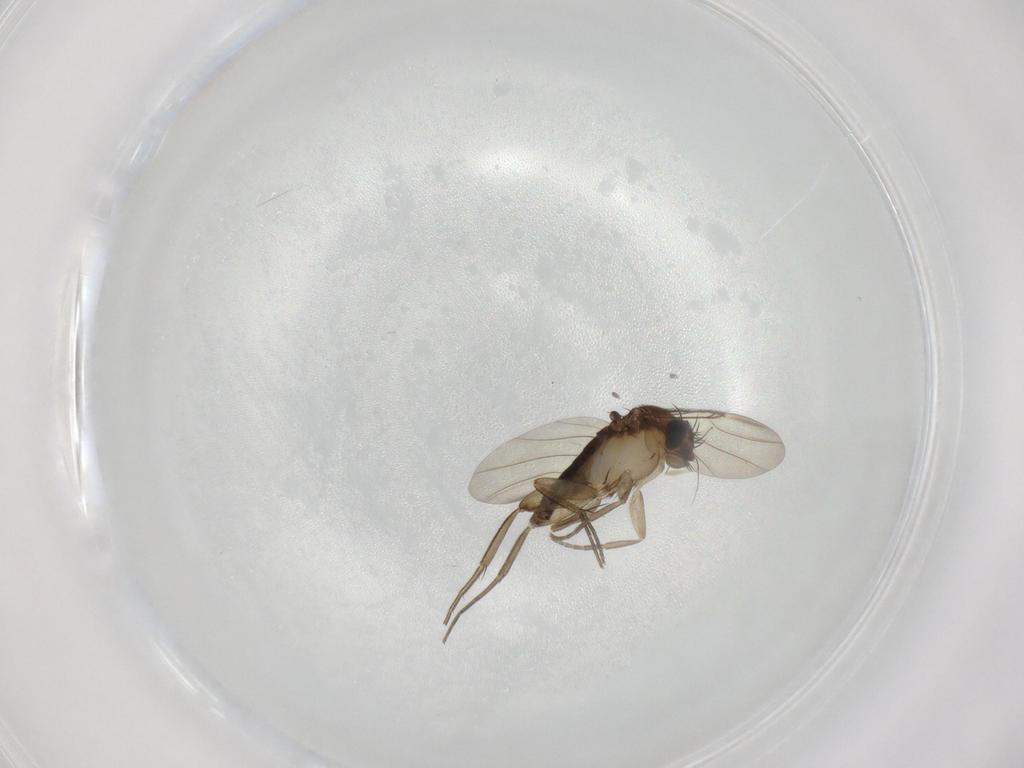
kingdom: Animalia
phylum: Arthropoda
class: Insecta
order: Diptera
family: Phoridae
